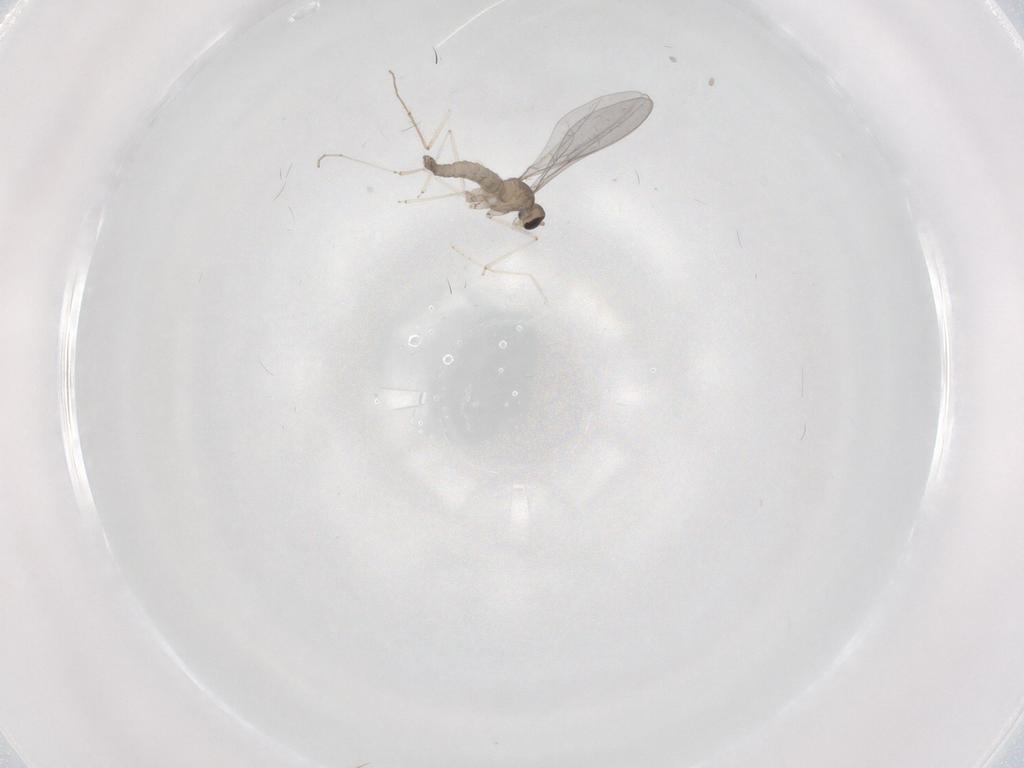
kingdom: Animalia
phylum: Arthropoda
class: Insecta
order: Diptera
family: Cecidomyiidae
